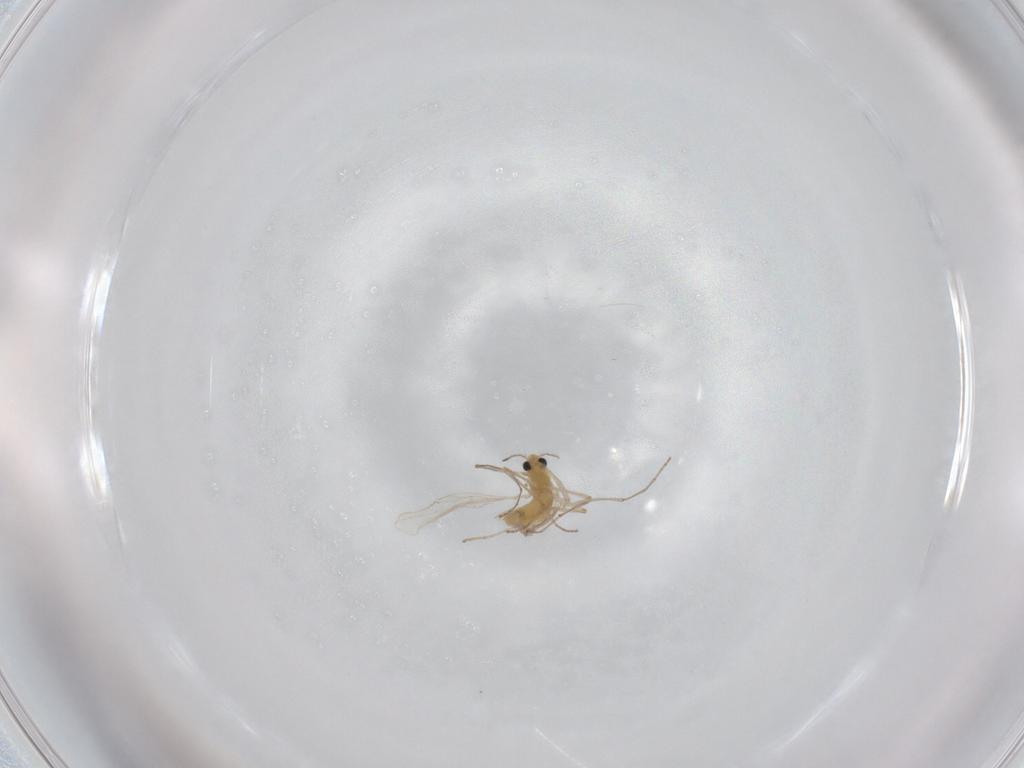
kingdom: Animalia
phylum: Arthropoda
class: Insecta
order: Diptera
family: Chironomidae
